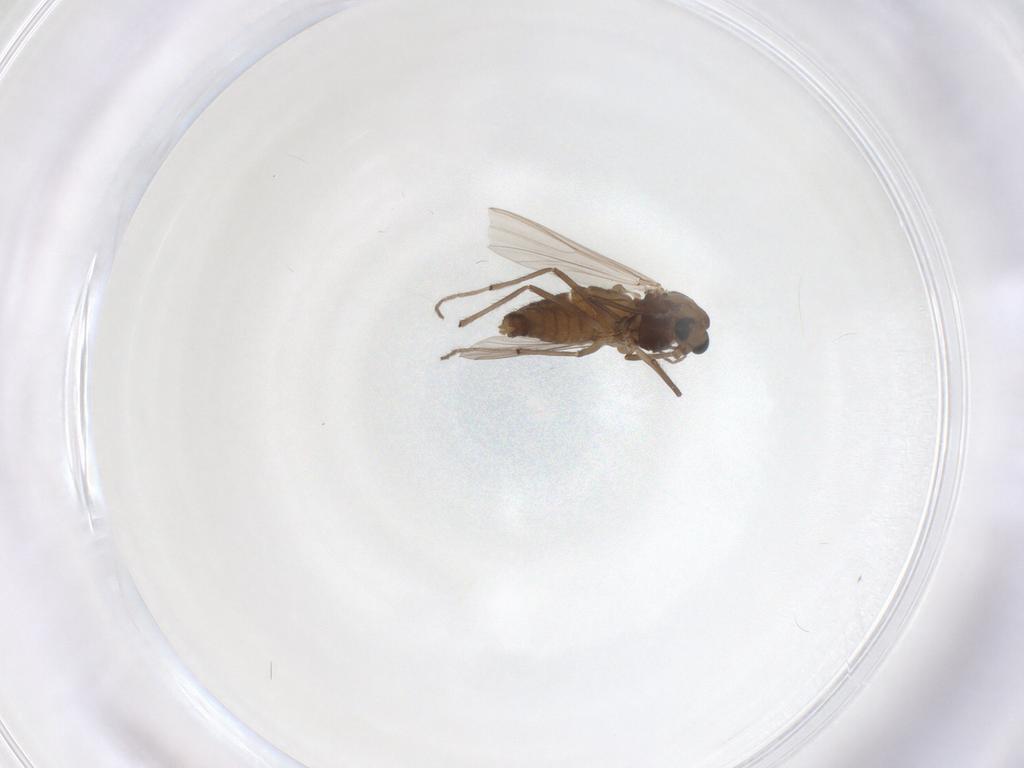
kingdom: Animalia
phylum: Arthropoda
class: Insecta
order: Diptera
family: Chironomidae
